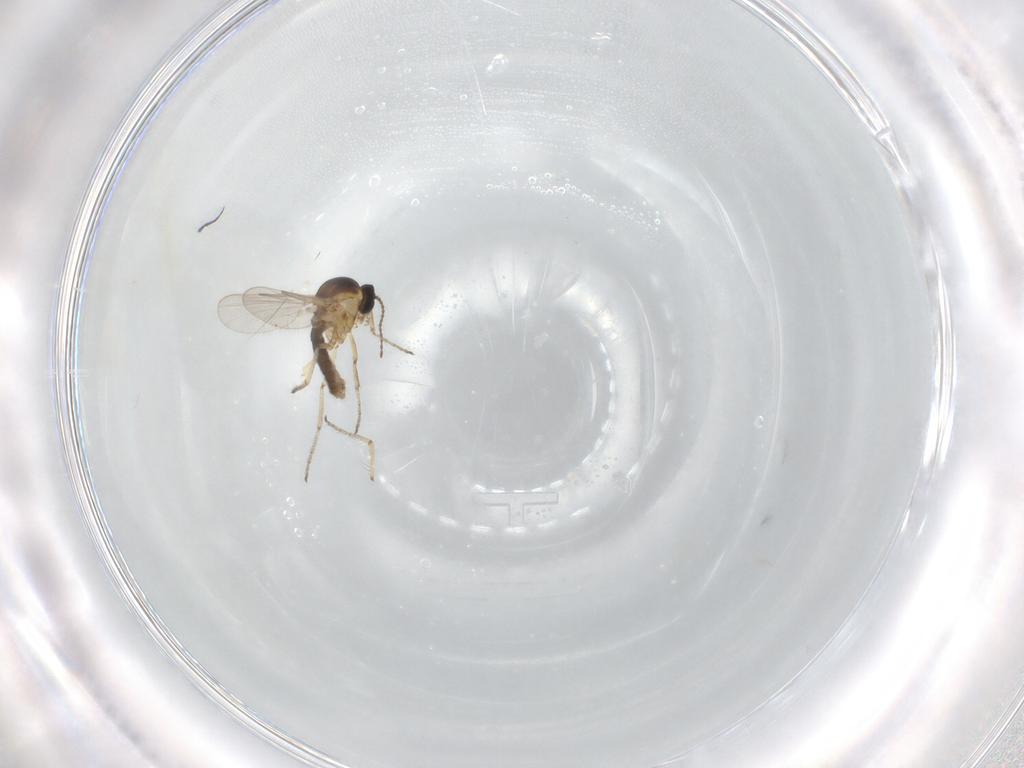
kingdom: Animalia
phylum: Arthropoda
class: Insecta
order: Diptera
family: Ceratopogonidae
